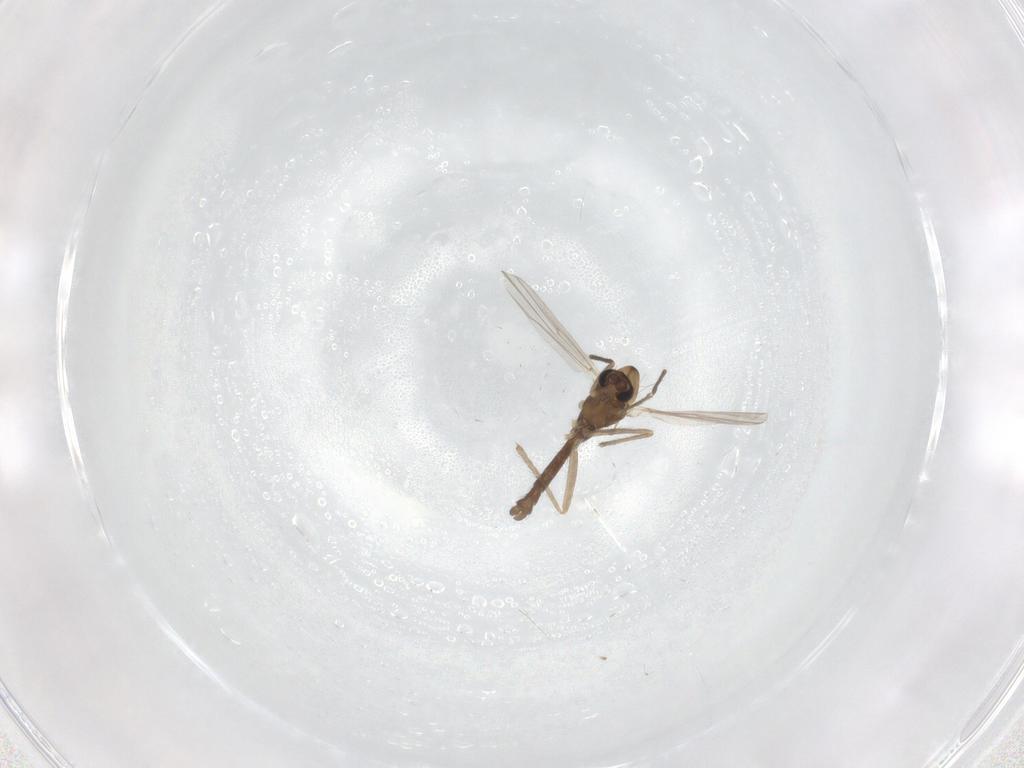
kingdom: Animalia
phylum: Arthropoda
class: Insecta
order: Diptera
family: Chironomidae
